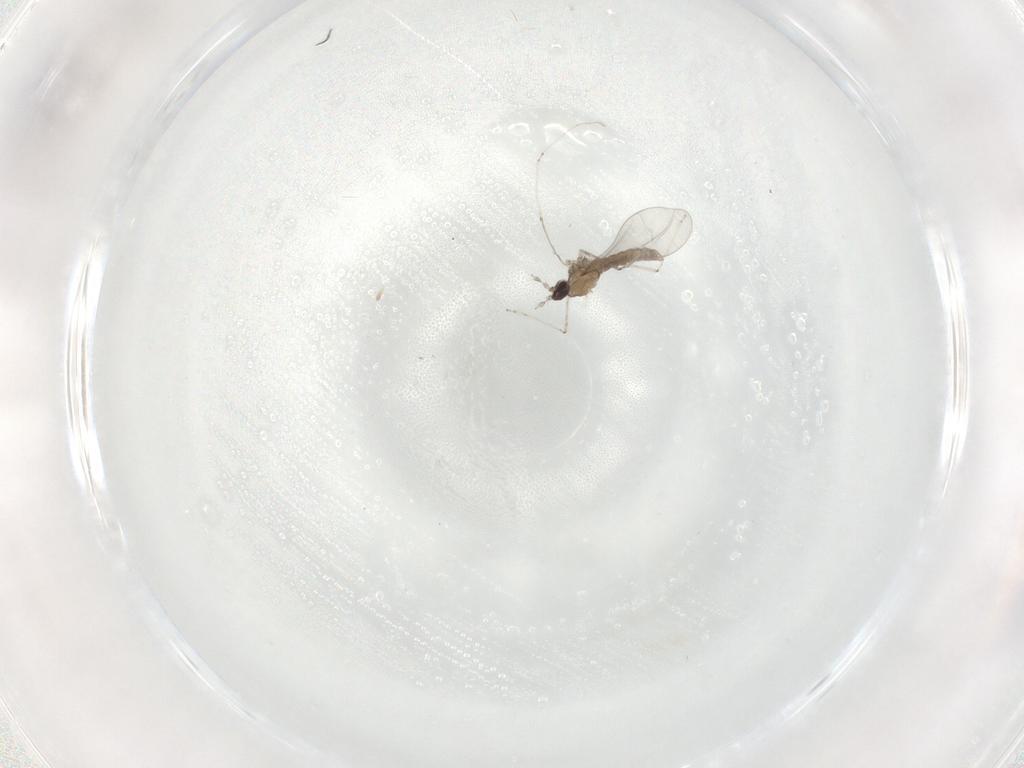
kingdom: Animalia
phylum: Arthropoda
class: Insecta
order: Diptera
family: Cecidomyiidae
